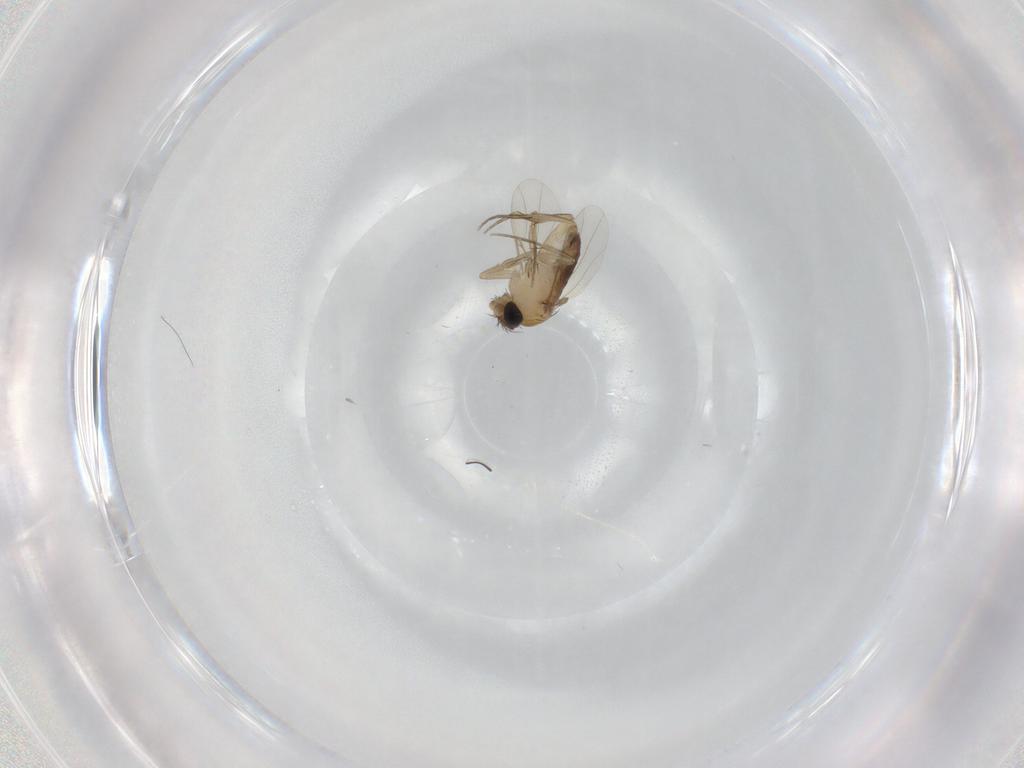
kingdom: Animalia
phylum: Arthropoda
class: Insecta
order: Diptera
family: Phoridae
